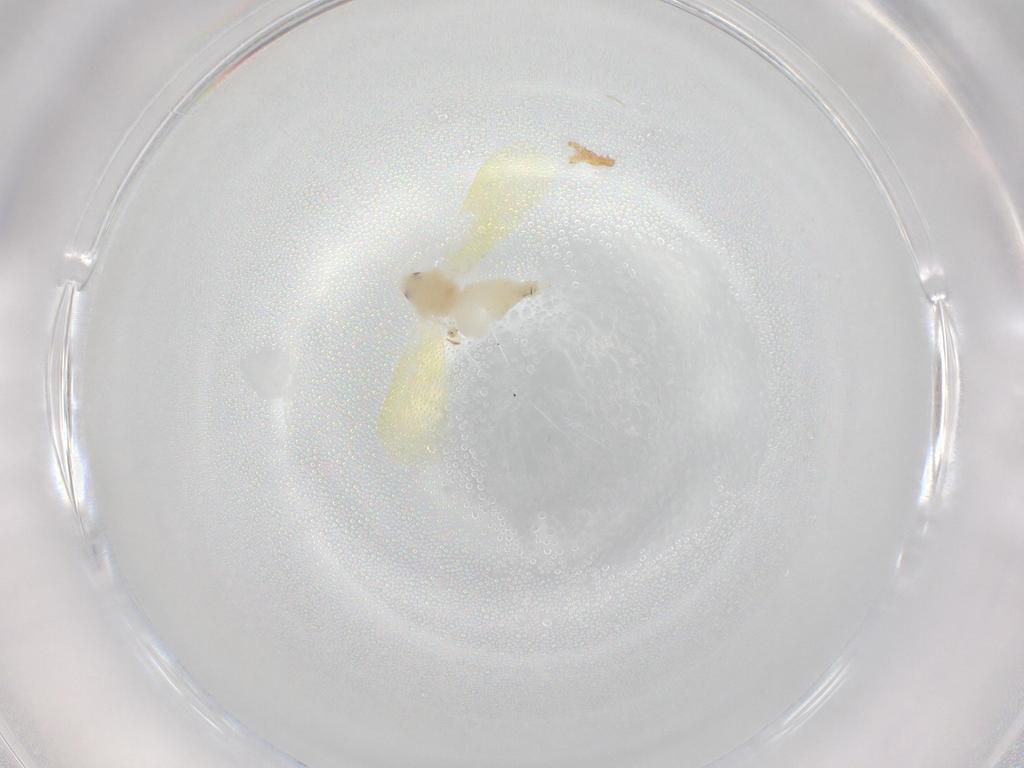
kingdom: Animalia
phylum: Arthropoda
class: Insecta
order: Hemiptera
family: Aleyrodidae
